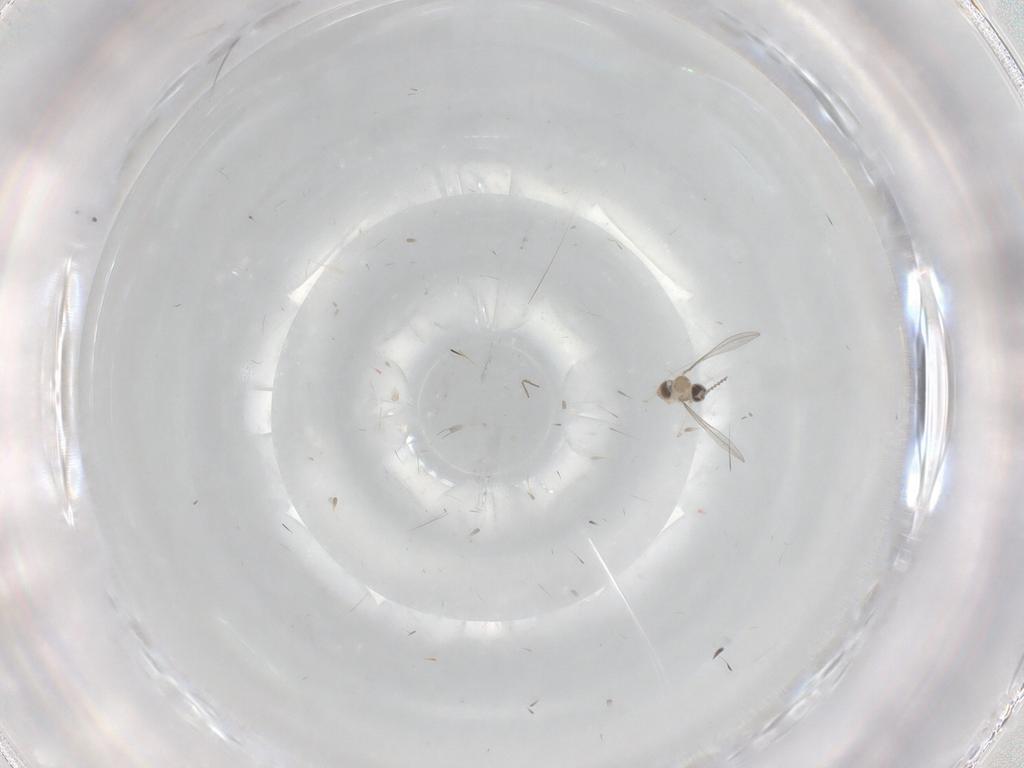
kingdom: Animalia
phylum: Arthropoda
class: Insecta
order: Diptera
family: Cecidomyiidae
